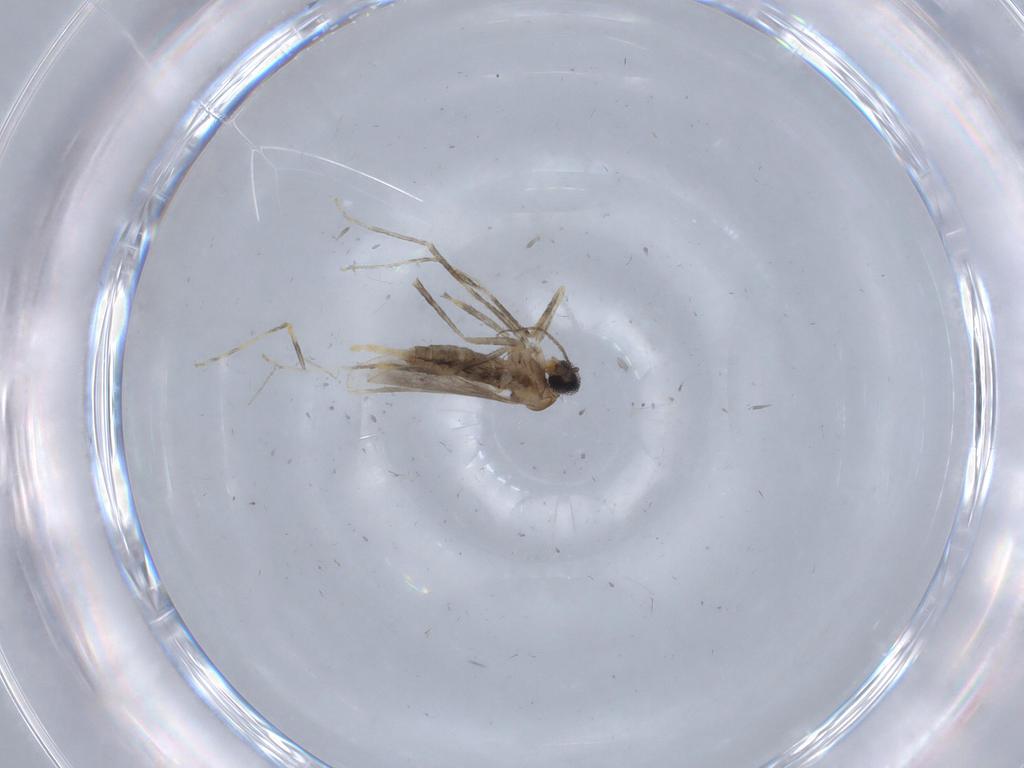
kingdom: Animalia
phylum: Arthropoda
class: Insecta
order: Diptera
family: Cecidomyiidae
